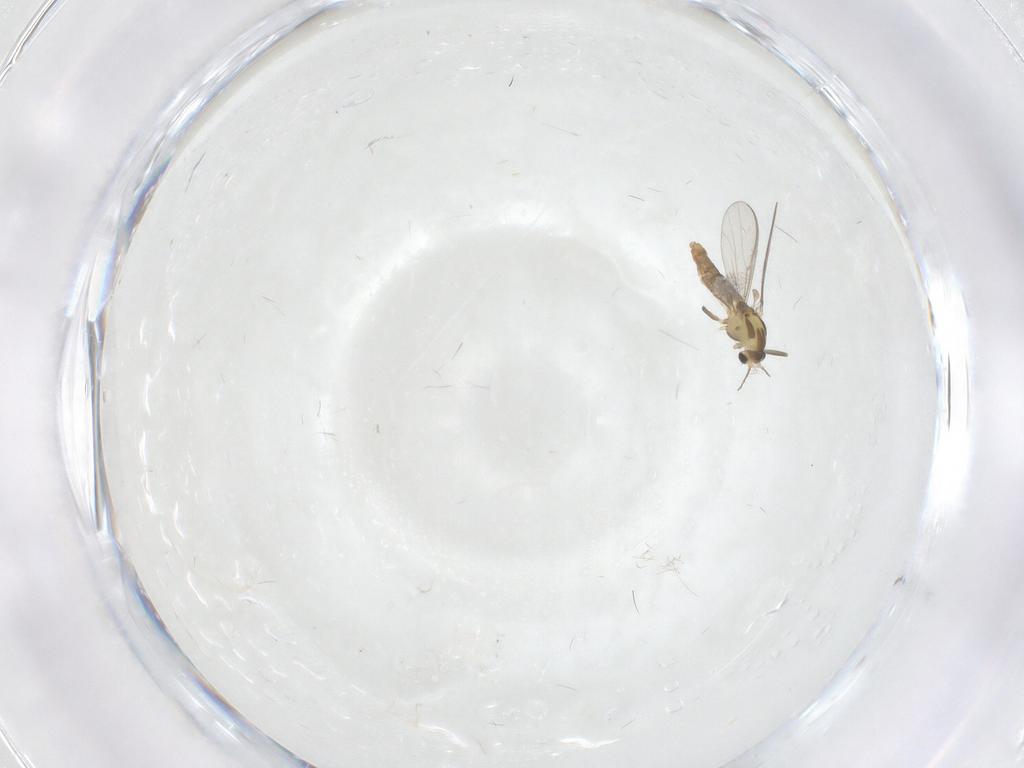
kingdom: Animalia
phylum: Arthropoda
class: Insecta
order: Diptera
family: Chironomidae
